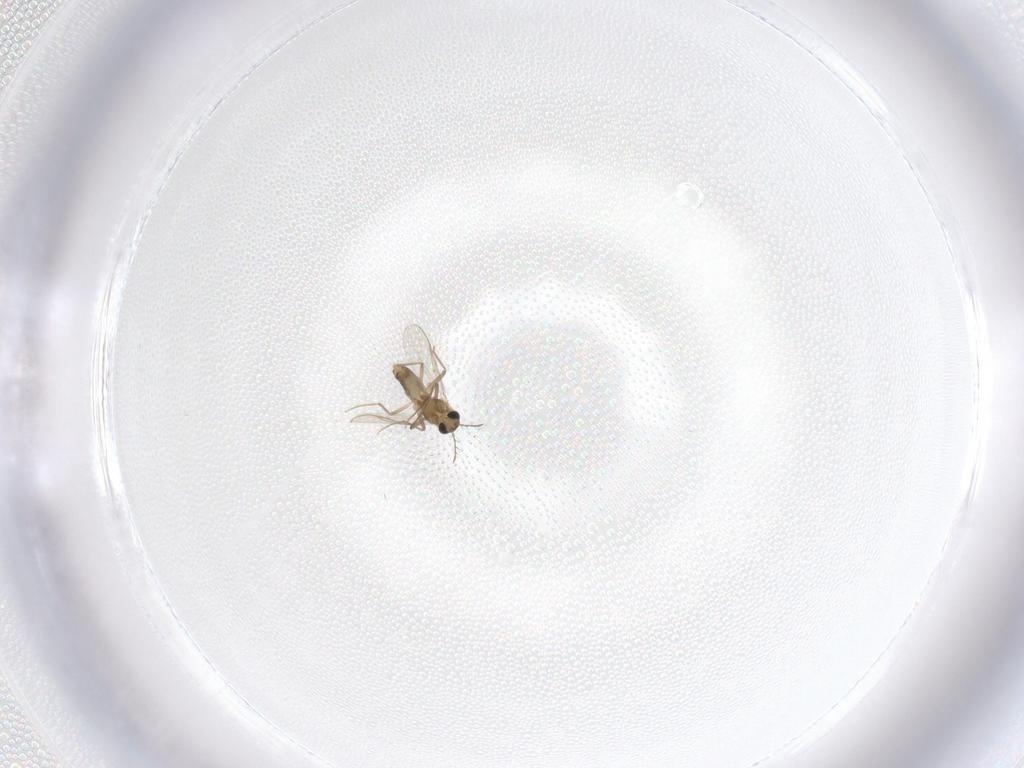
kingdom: Animalia
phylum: Arthropoda
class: Insecta
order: Diptera
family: Chironomidae
